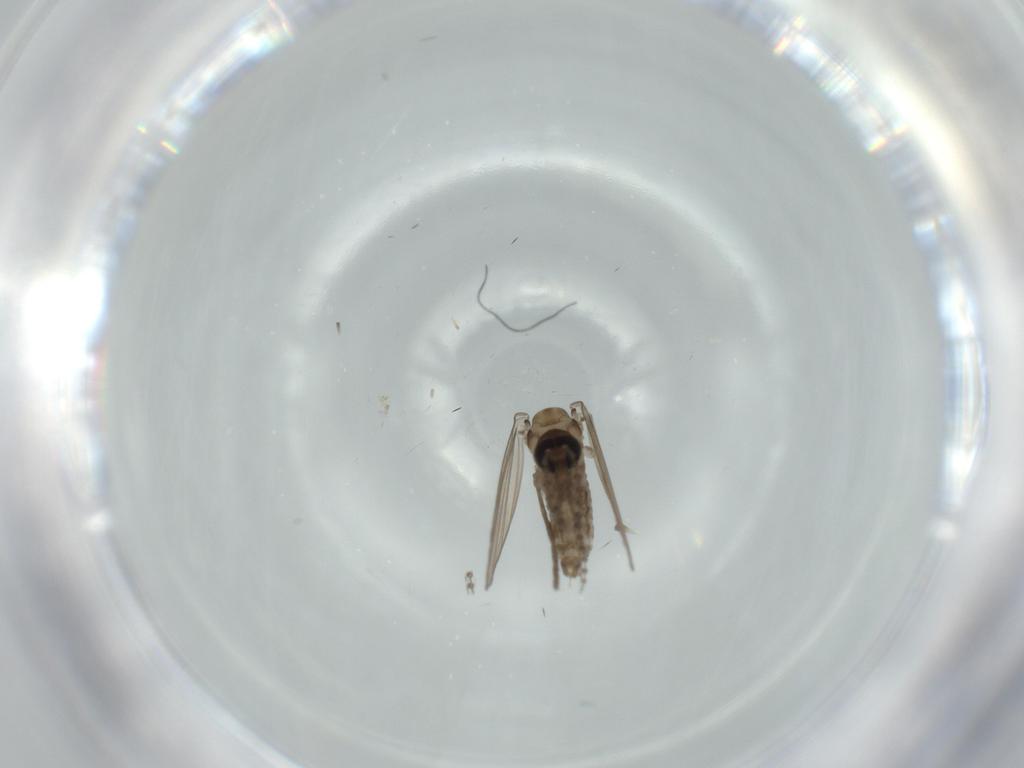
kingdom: Animalia
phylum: Arthropoda
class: Insecta
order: Diptera
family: Psychodidae
